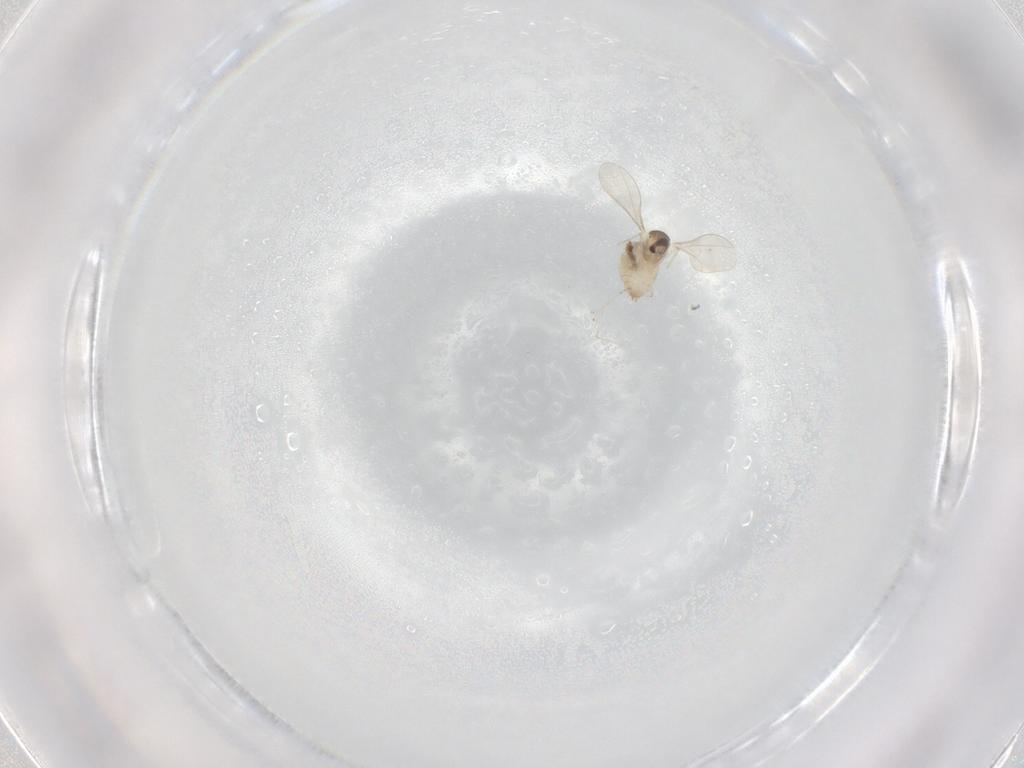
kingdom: Animalia
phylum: Arthropoda
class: Insecta
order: Diptera
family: Cecidomyiidae
